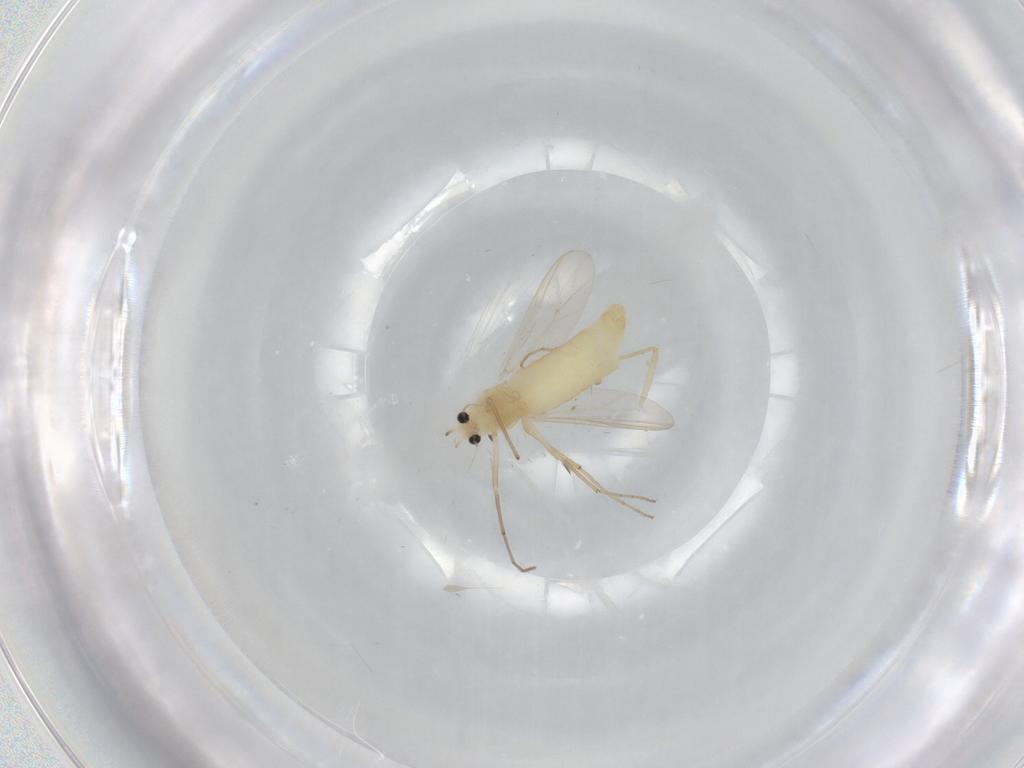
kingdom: Animalia
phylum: Arthropoda
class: Insecta
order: Diptera
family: Chironomidae
